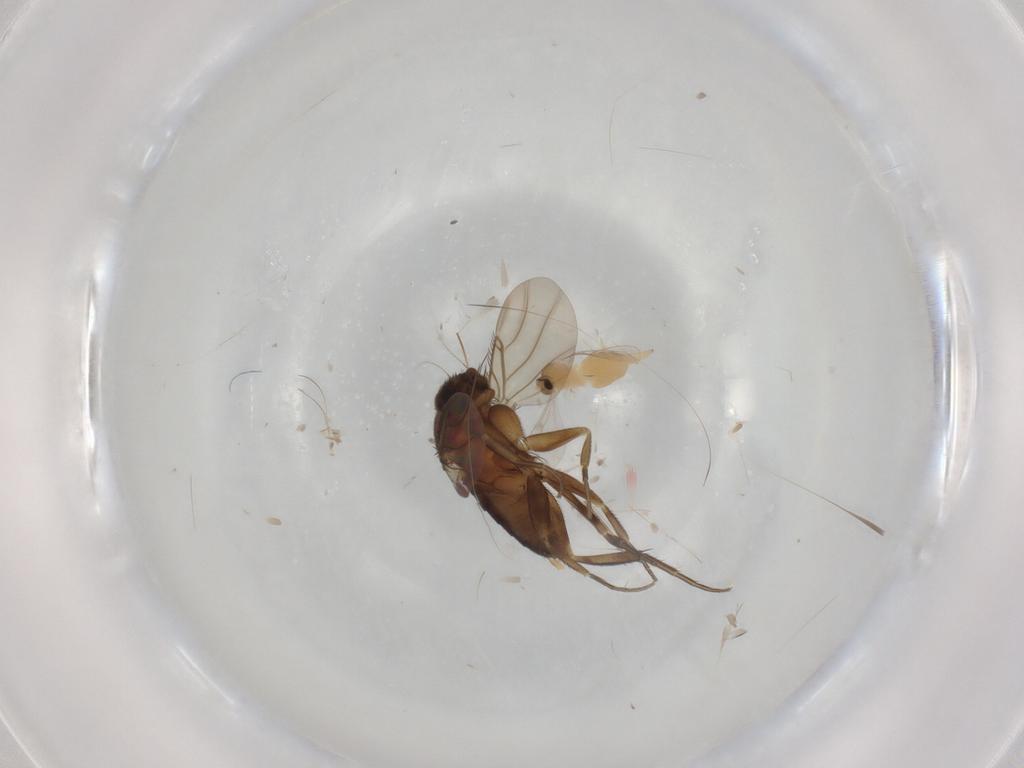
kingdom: Animalia
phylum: Arthropoda
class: Insecta
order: Diptera
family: Cecidomyiidae
